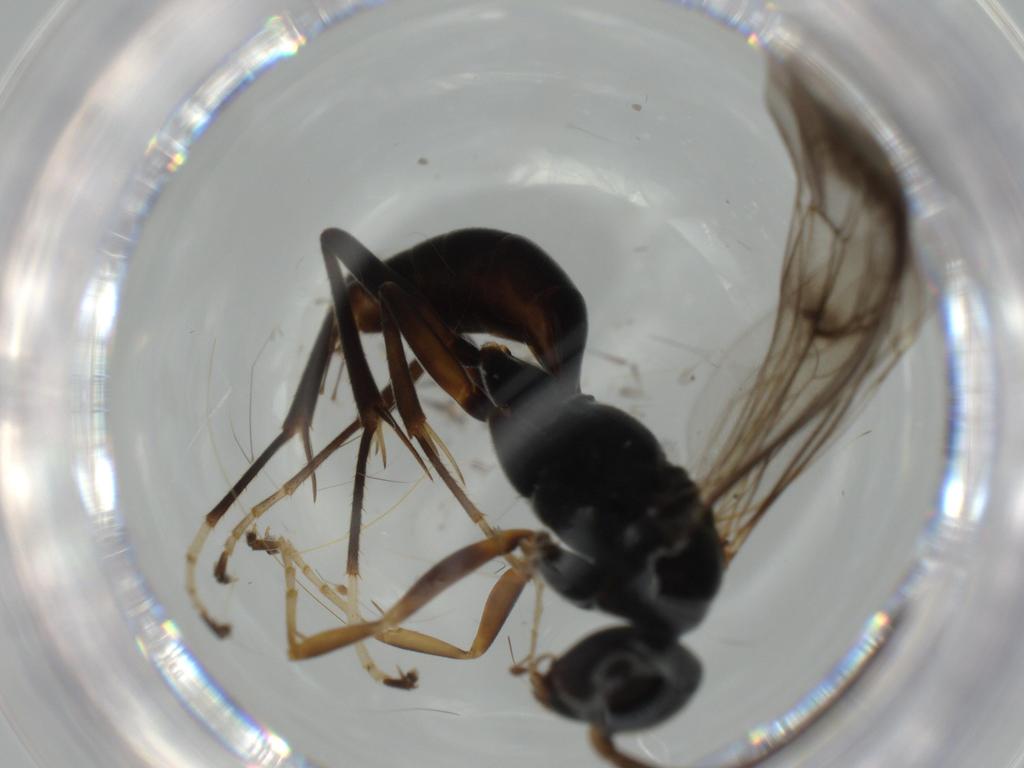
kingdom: Animalia
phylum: Arthropoda
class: Insecta
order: Hymenoptera
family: Pompilidae
